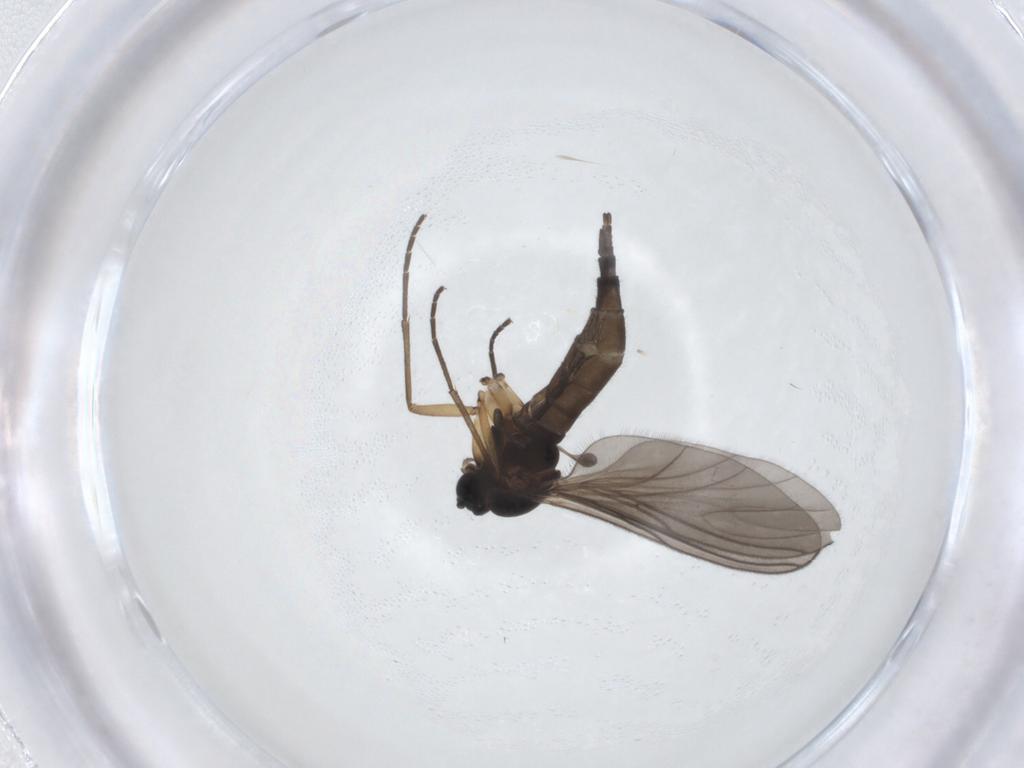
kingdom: Animalia
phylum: Arthropoda
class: Insecta
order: Diptera
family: Sciaridae
